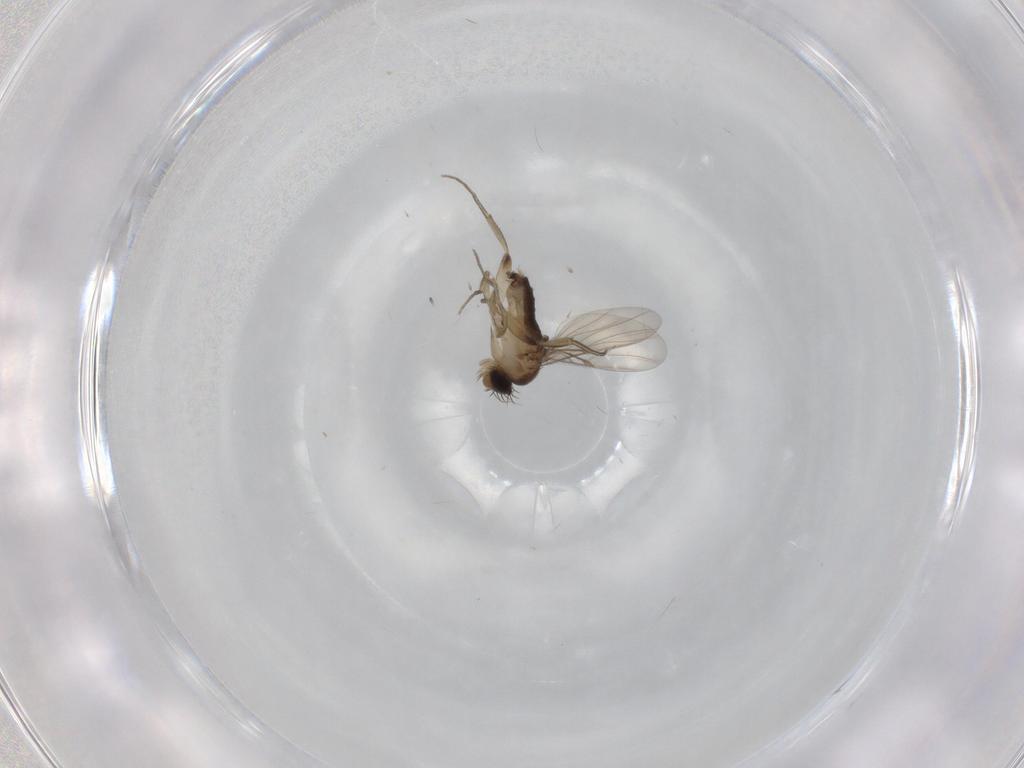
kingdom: Animalia
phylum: Arthropoda
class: Insecta
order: Diptera
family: Phoridae
